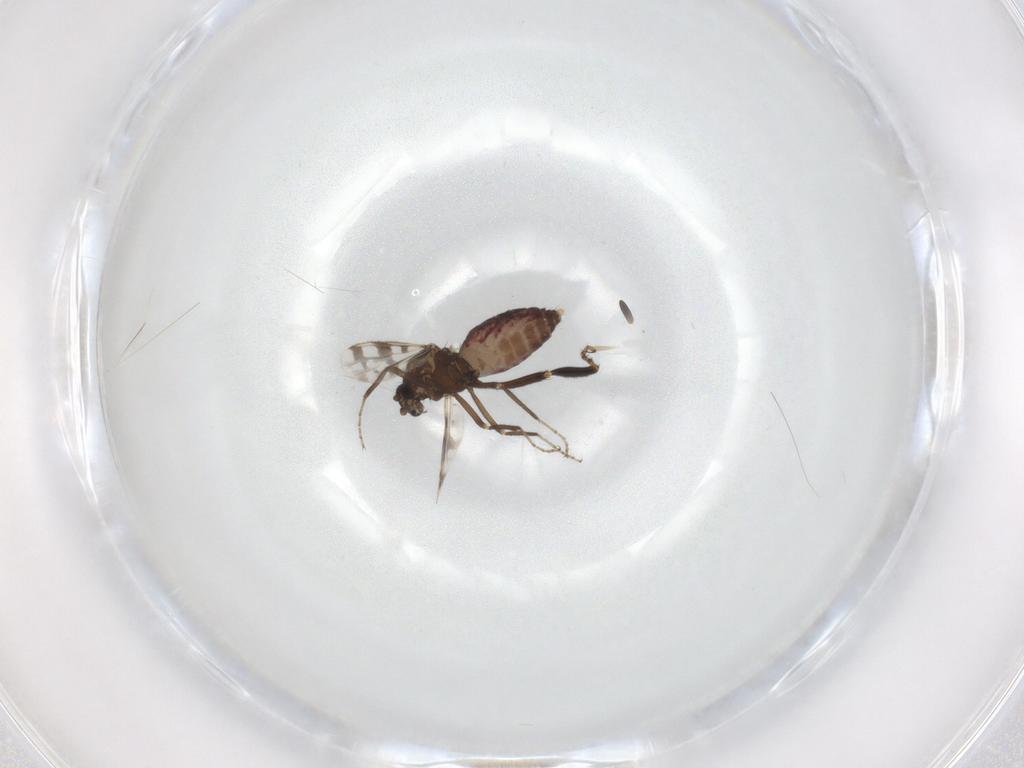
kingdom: Animalia
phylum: Arthropoda
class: Insecta
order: Diptera
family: Ceratopogonidae
